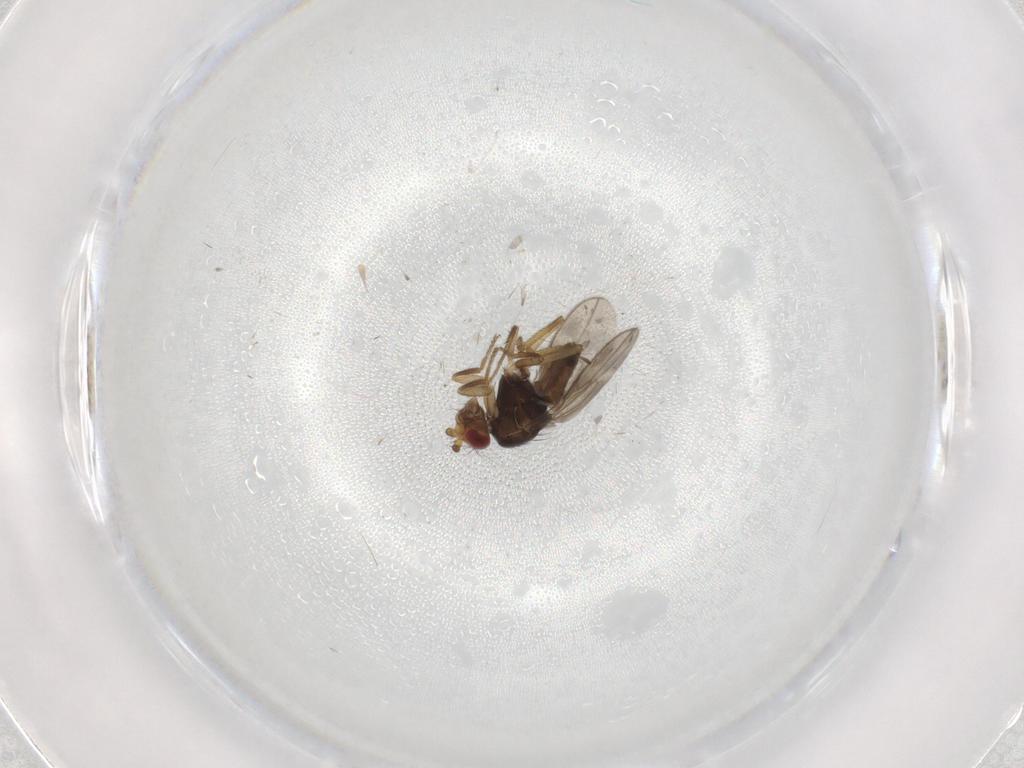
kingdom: Animalia
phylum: Arthropoda
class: Insecta
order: Diptera
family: Sphaeroceridae
